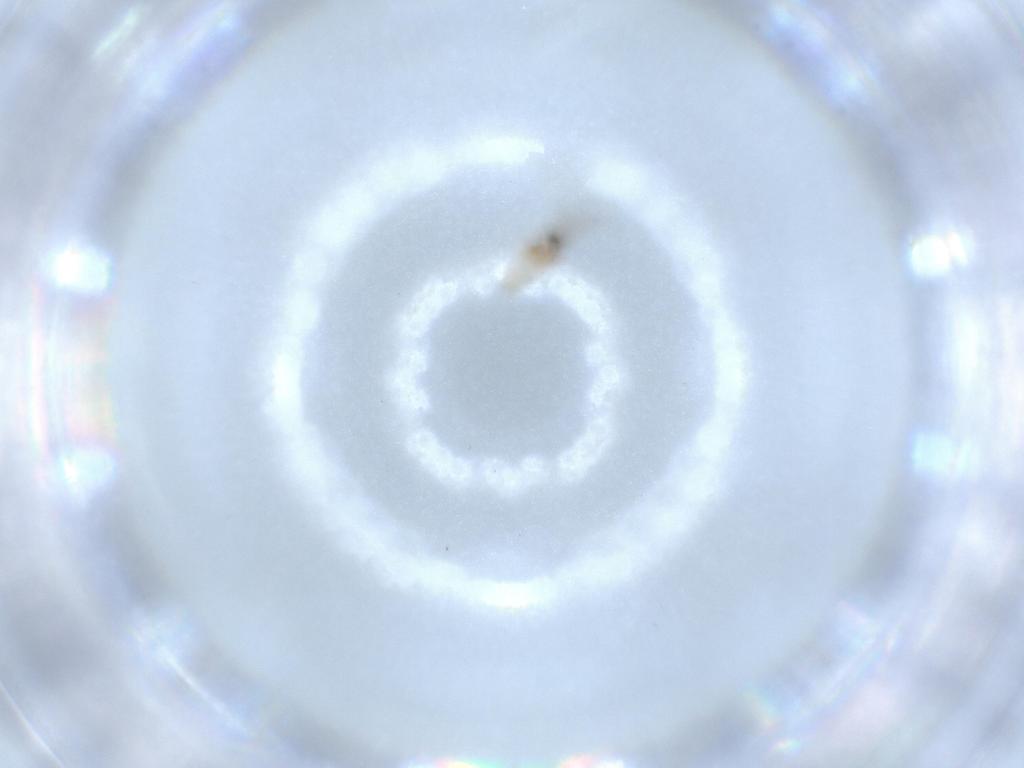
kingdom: Animalia
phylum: Arthropoda
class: Insecta
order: Diptera
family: Cecidomyiidae
